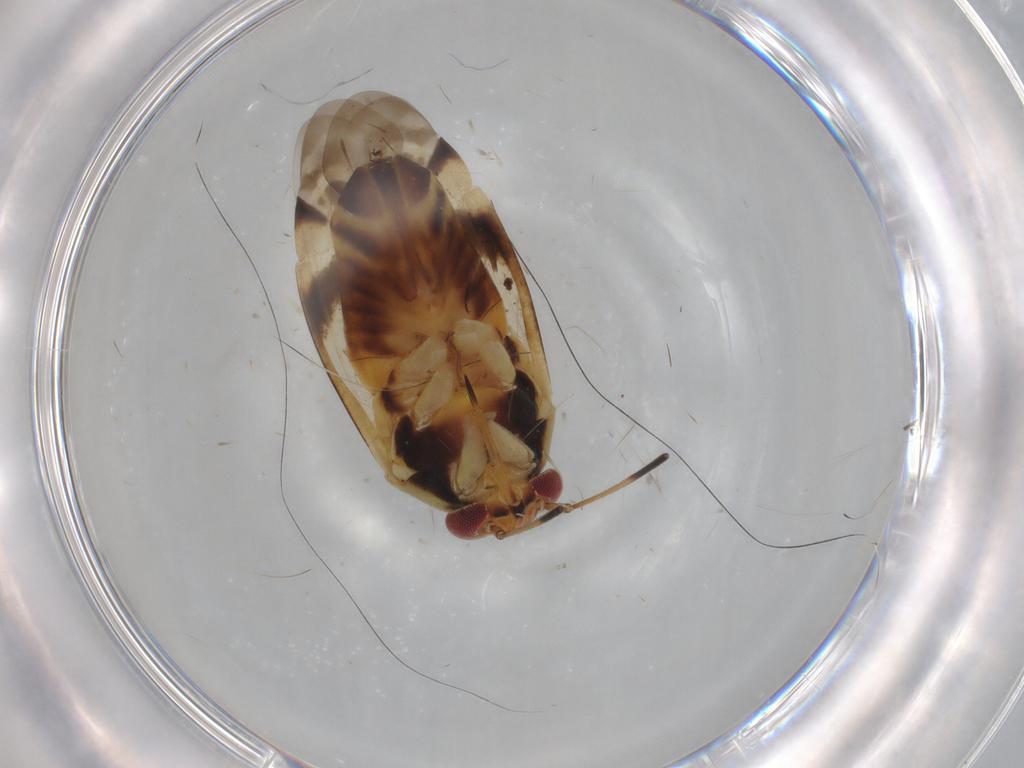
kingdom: Animalia
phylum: Arthropoda
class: Insecta
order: Hemiptera
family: Miridae
